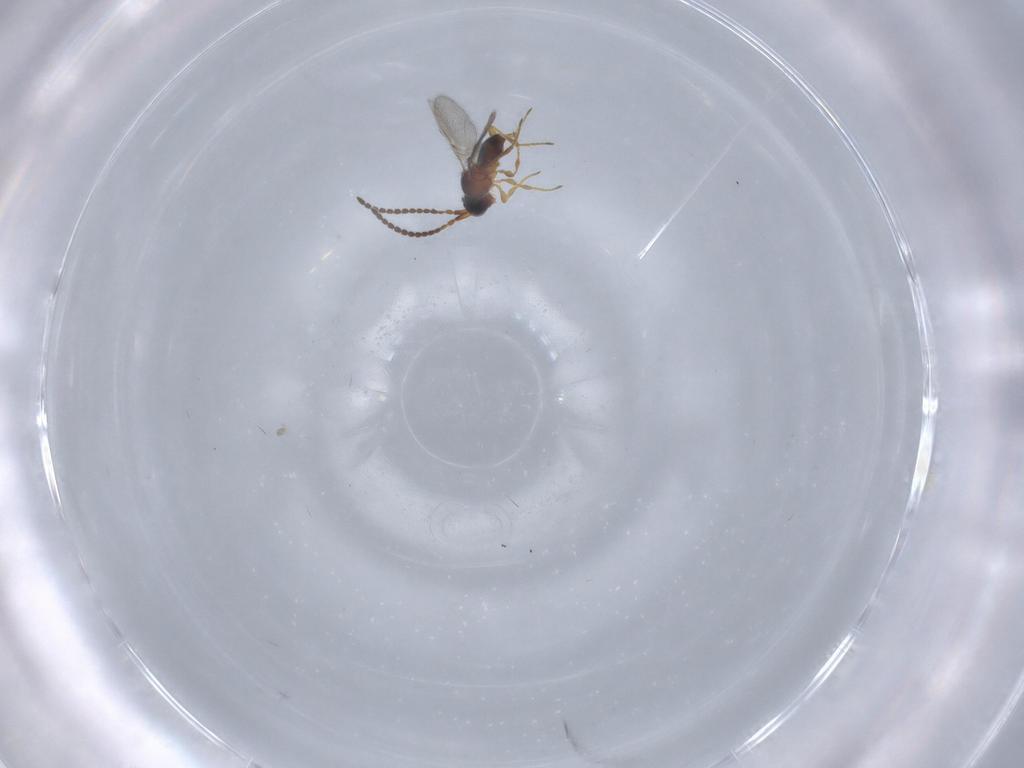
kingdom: Animalia
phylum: Arthropoda
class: Insecta
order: Hymenoptera
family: Diapriidae
